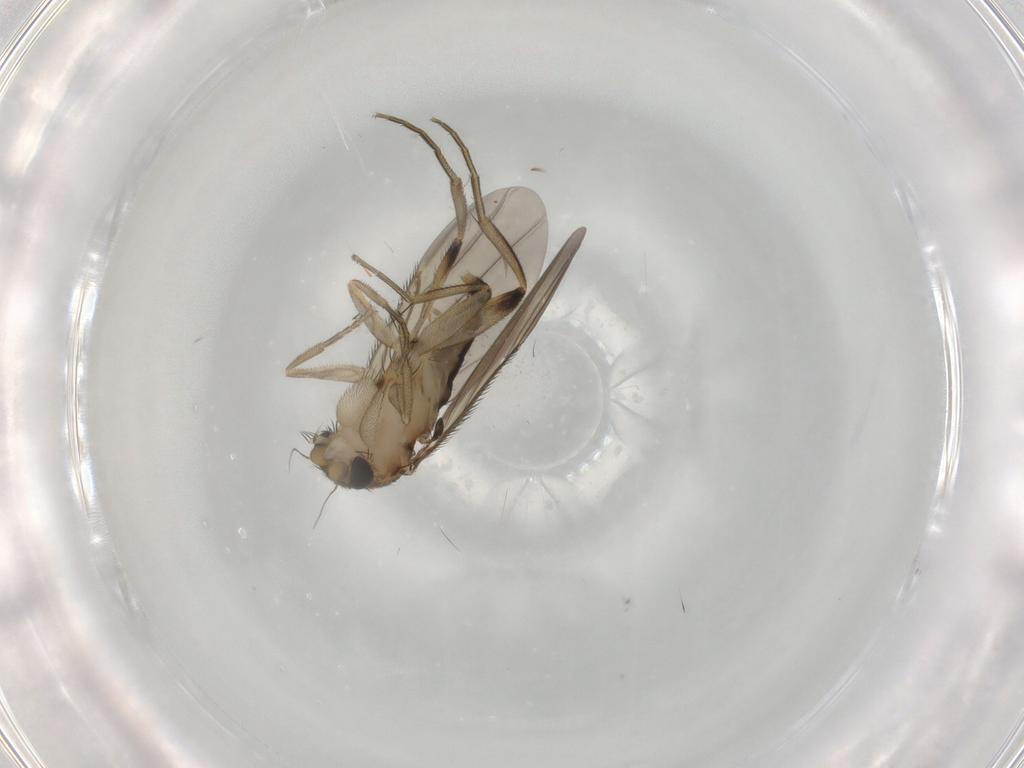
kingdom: Animalia
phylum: Arthropoda
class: Insecta
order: Diptera
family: Phoridae
